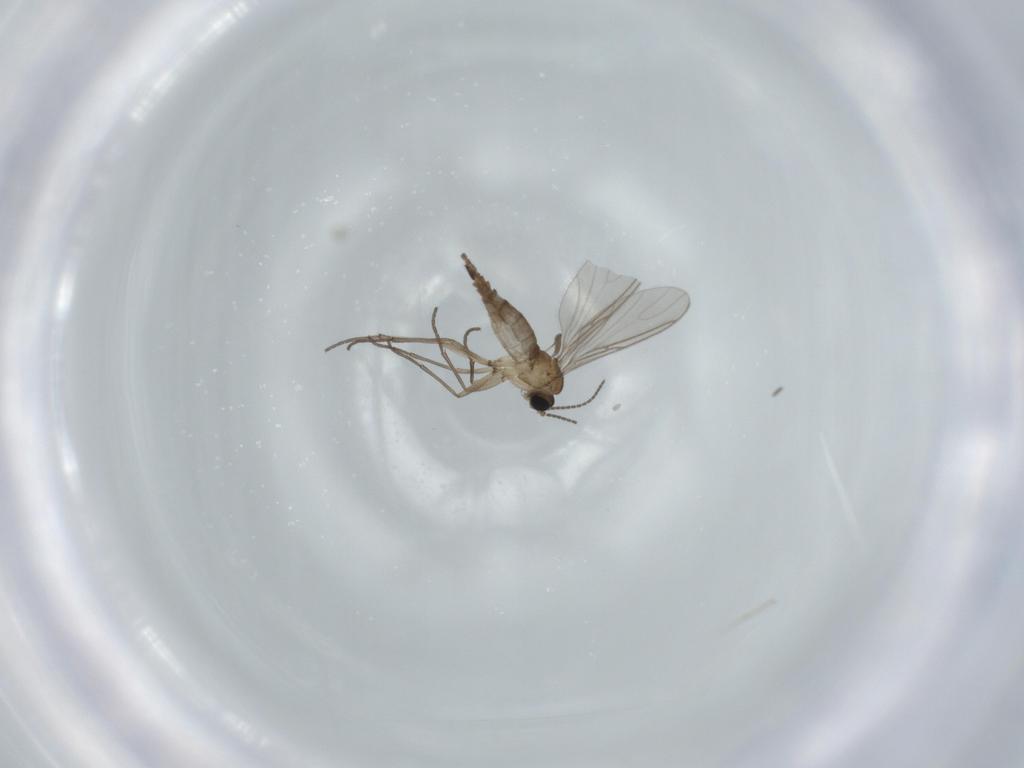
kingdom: Animalia
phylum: Arthropoda
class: Insecta
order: Diptera
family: Sciaridae
